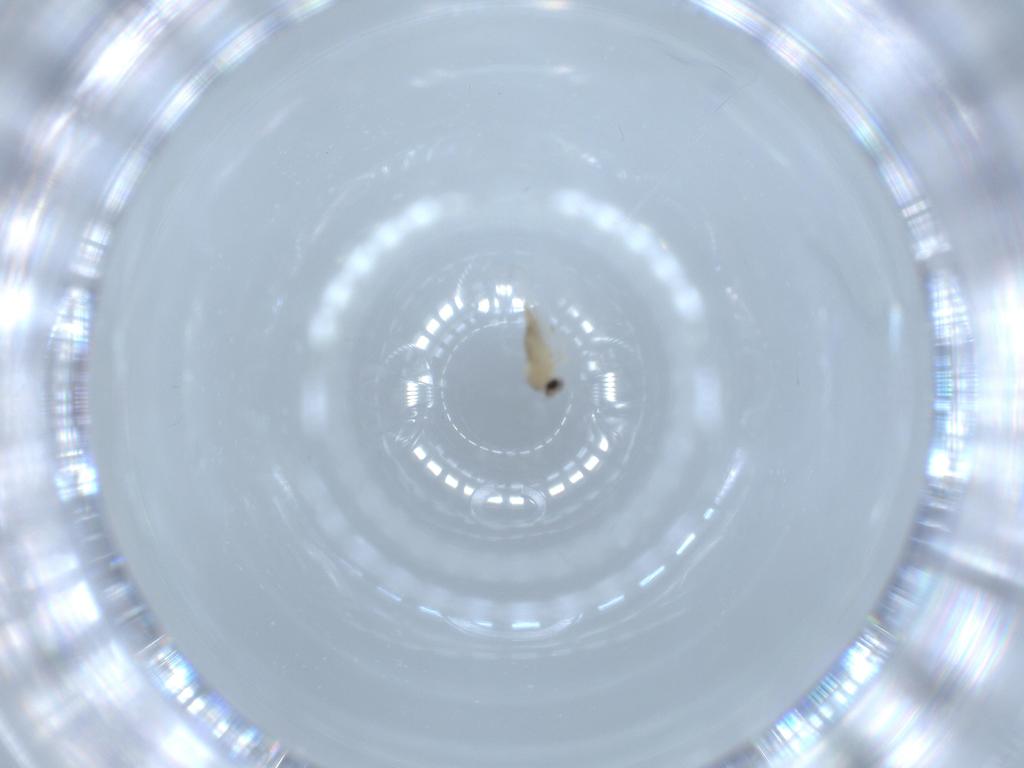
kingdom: Animalia
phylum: Arthropoda
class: Insecta
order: Diptera
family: Cecidomyiidae
